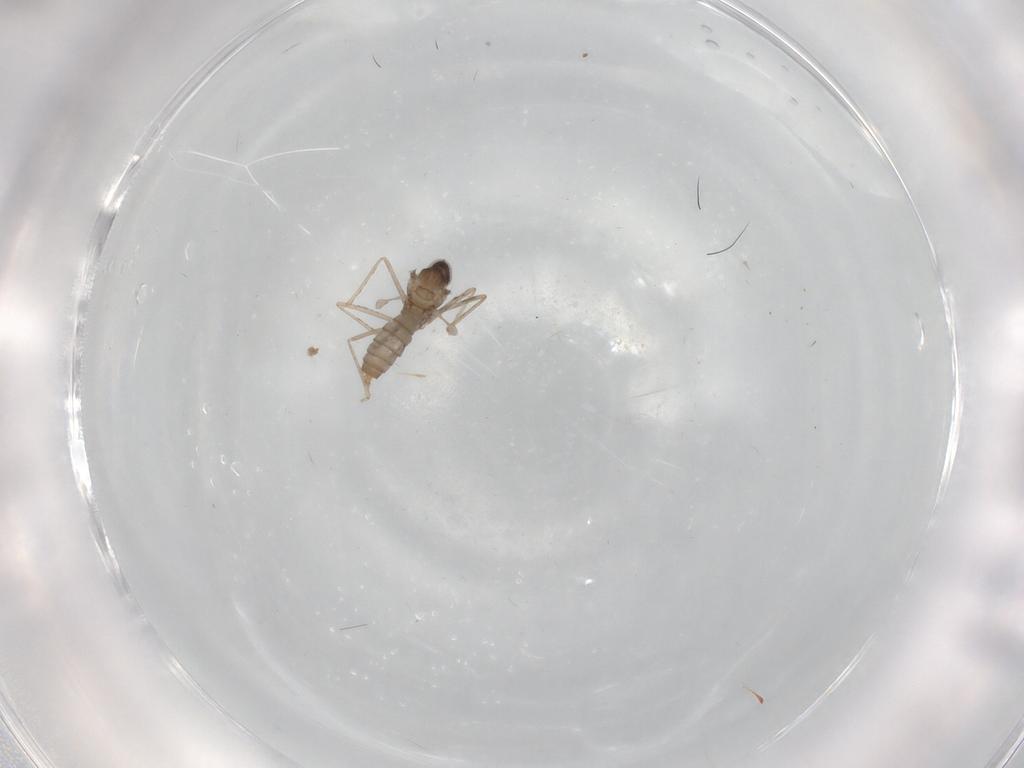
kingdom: Animalia
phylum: Arthropoda
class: Insecta
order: Diptera
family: Cecidomyiidae
